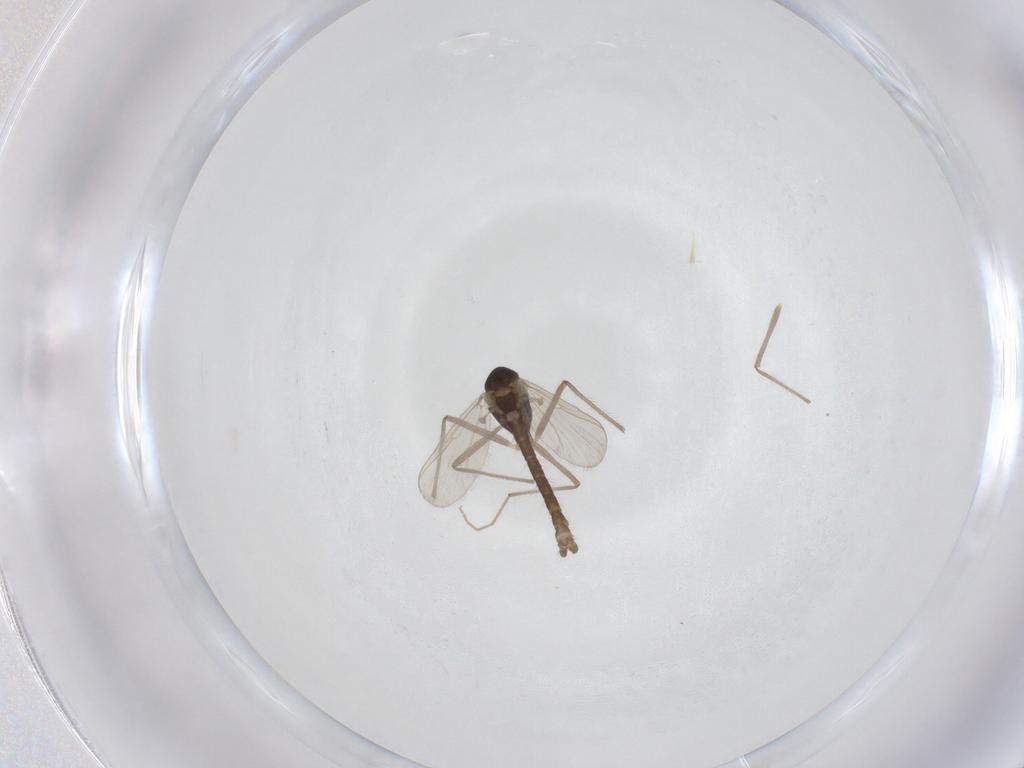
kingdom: Animalia
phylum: Arthropoda
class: Insecta
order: Diptera
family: Chironomidae
